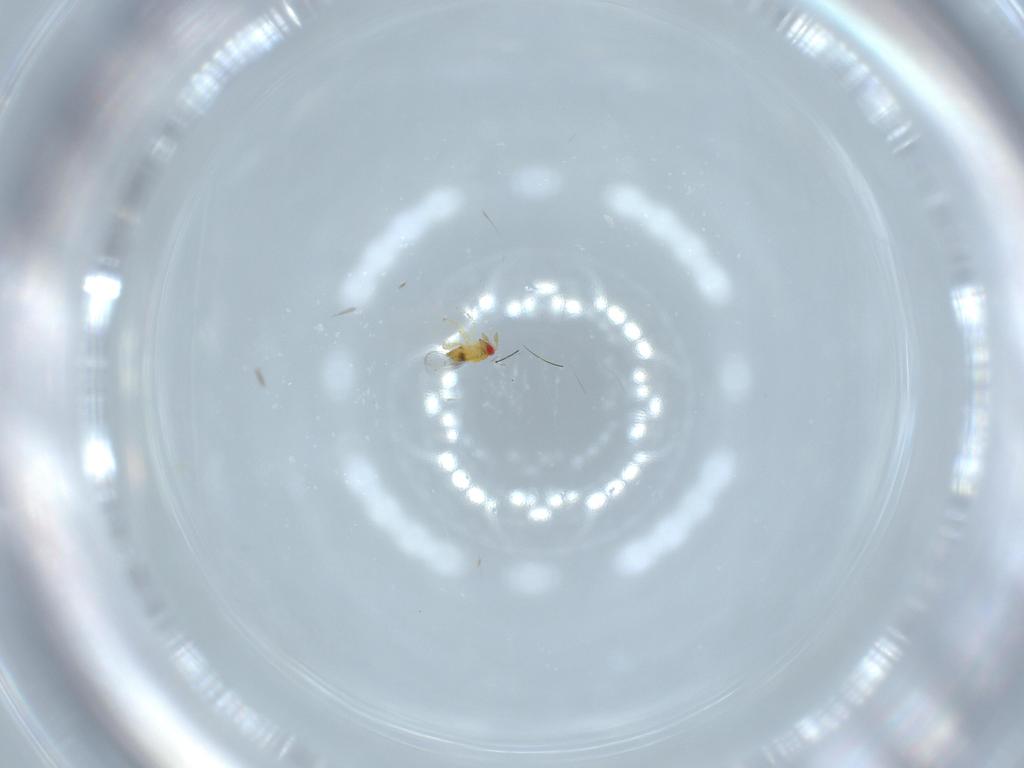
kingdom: Animalia
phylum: Arthropoda
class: Insecta
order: Hymenoptera
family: Trichogrammatidae
